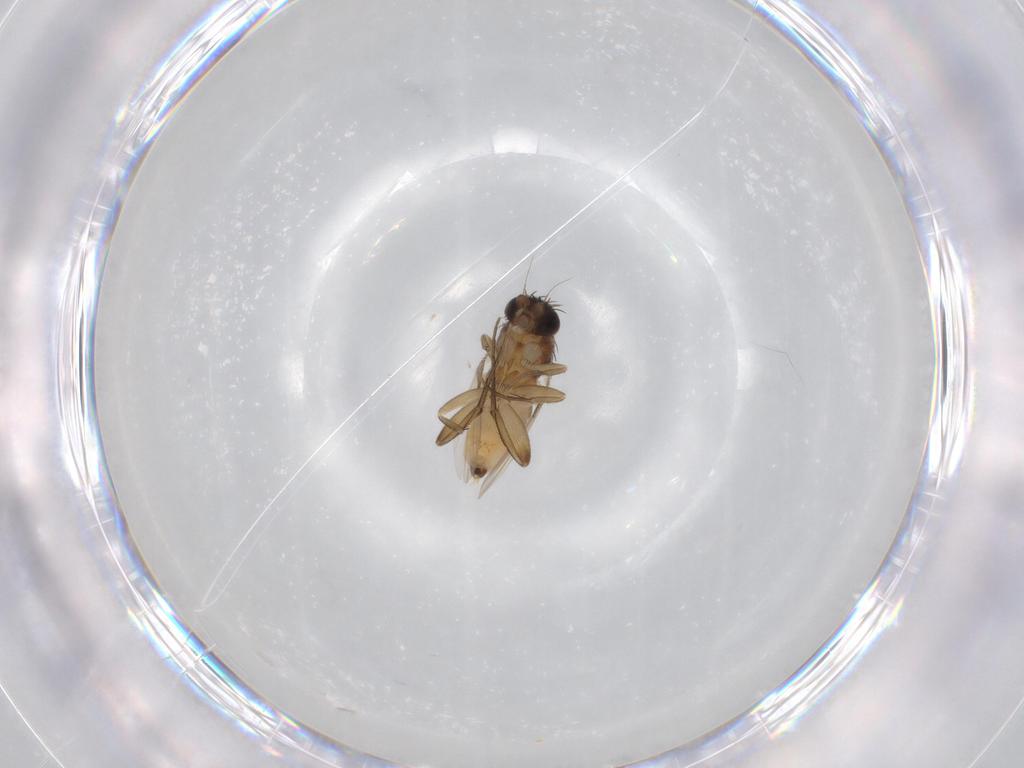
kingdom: Animalia
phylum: Arthropoda
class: Insecta
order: Diptera
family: Phoridae
